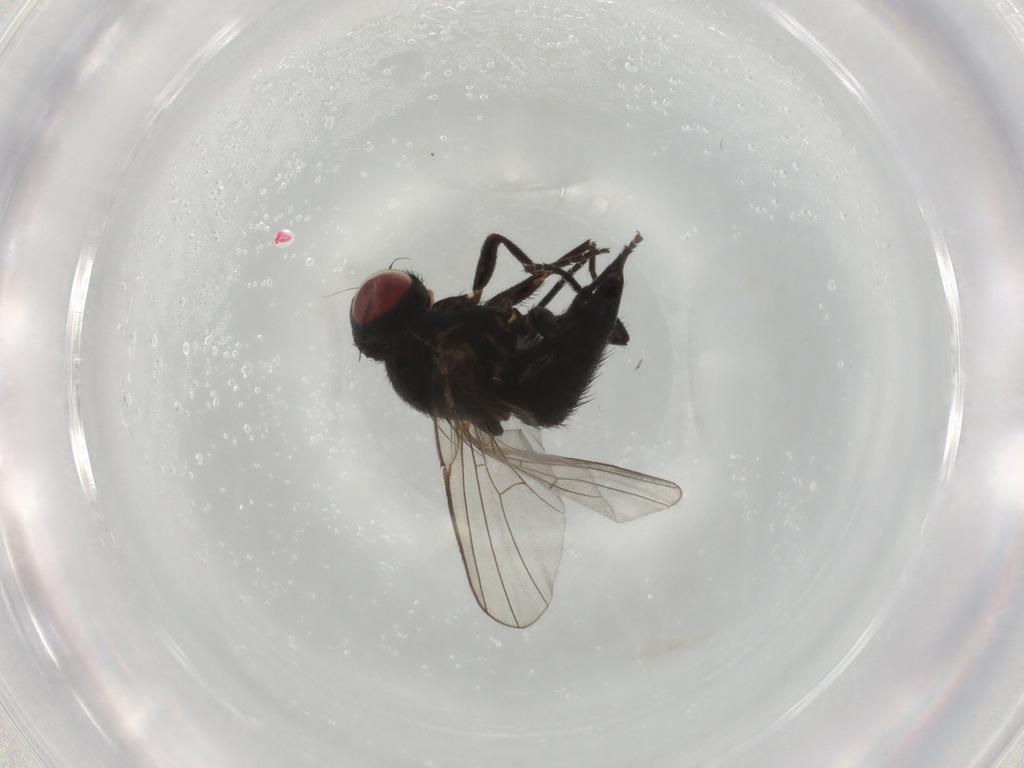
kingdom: Animalia
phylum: Arthropoda
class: Insecta
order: Diptera
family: Agromyzidae
